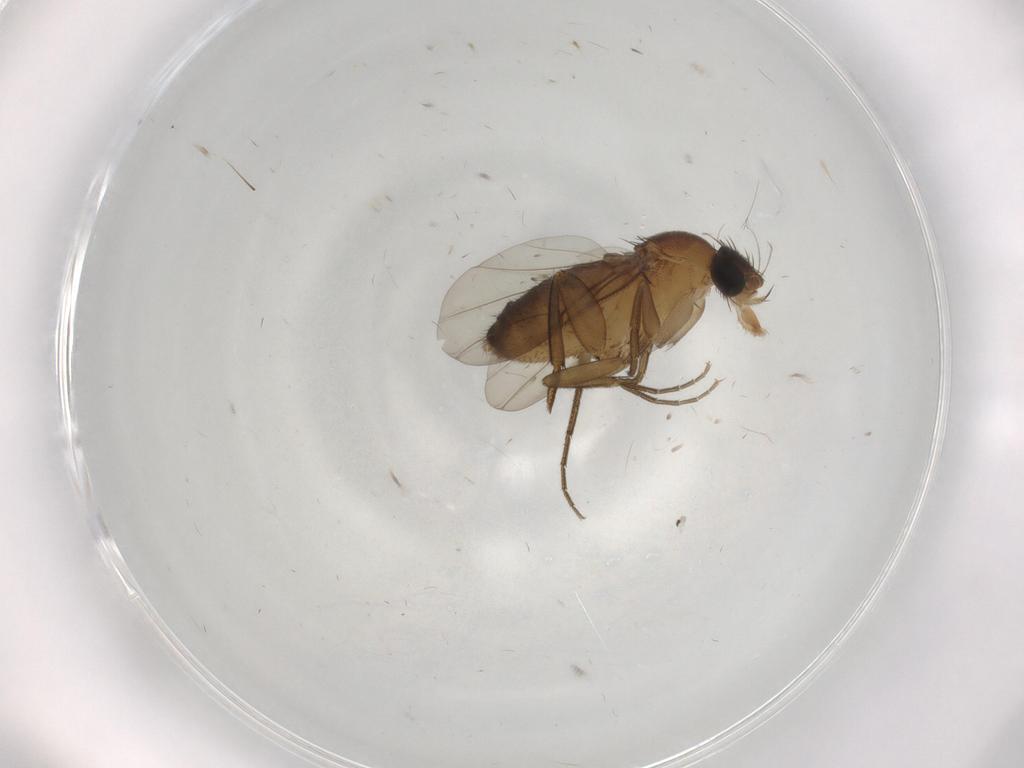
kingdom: Animalia
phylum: Arthropoda
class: Insecta
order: Diptera
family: Phoridae
